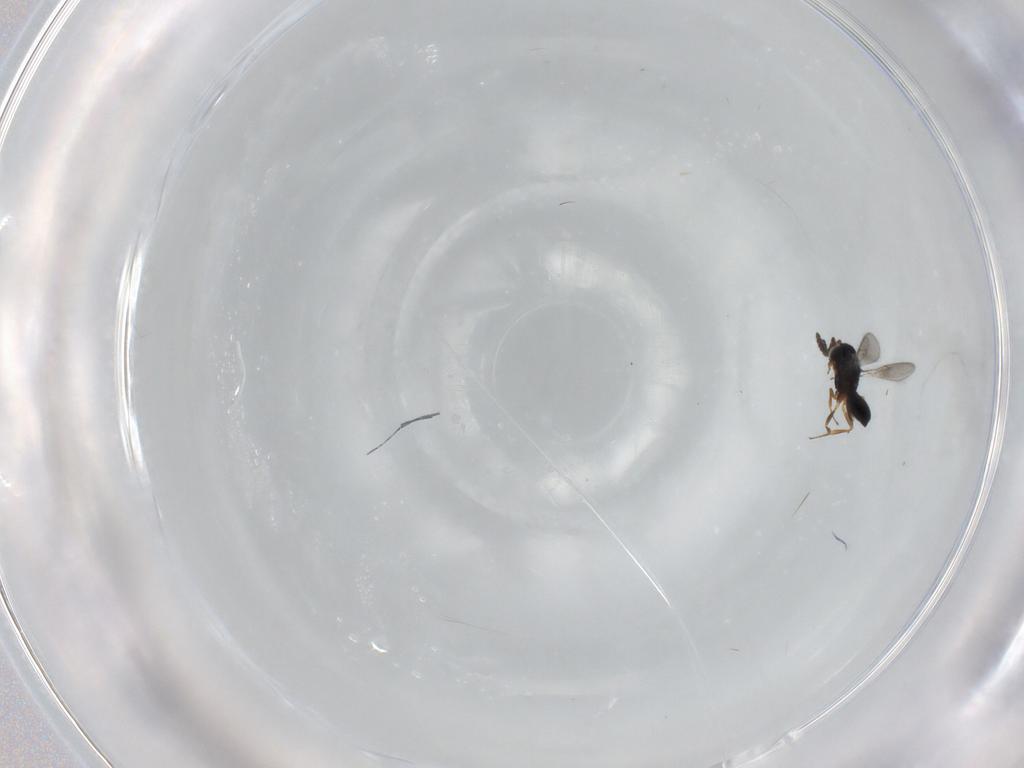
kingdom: Animalia
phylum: Arthropoda
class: Insecta
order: Hymenoptera
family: Scelionidae
